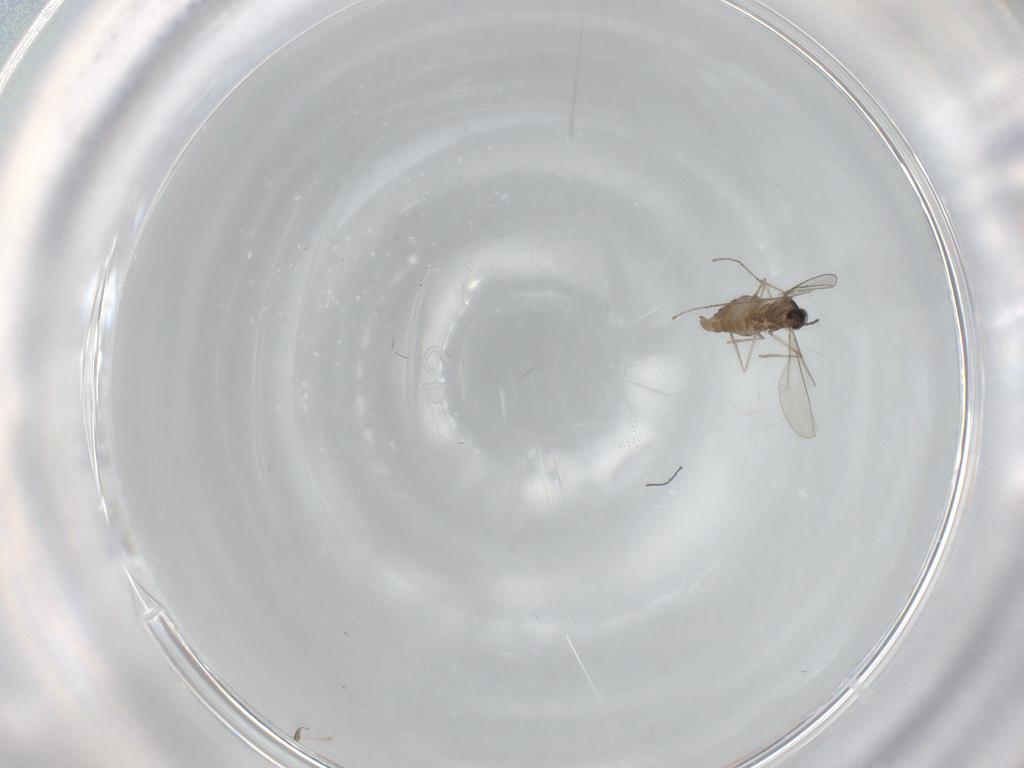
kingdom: Animalia
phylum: Arthropoda
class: Insecta
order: Diptera
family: Cecidomyiidae
